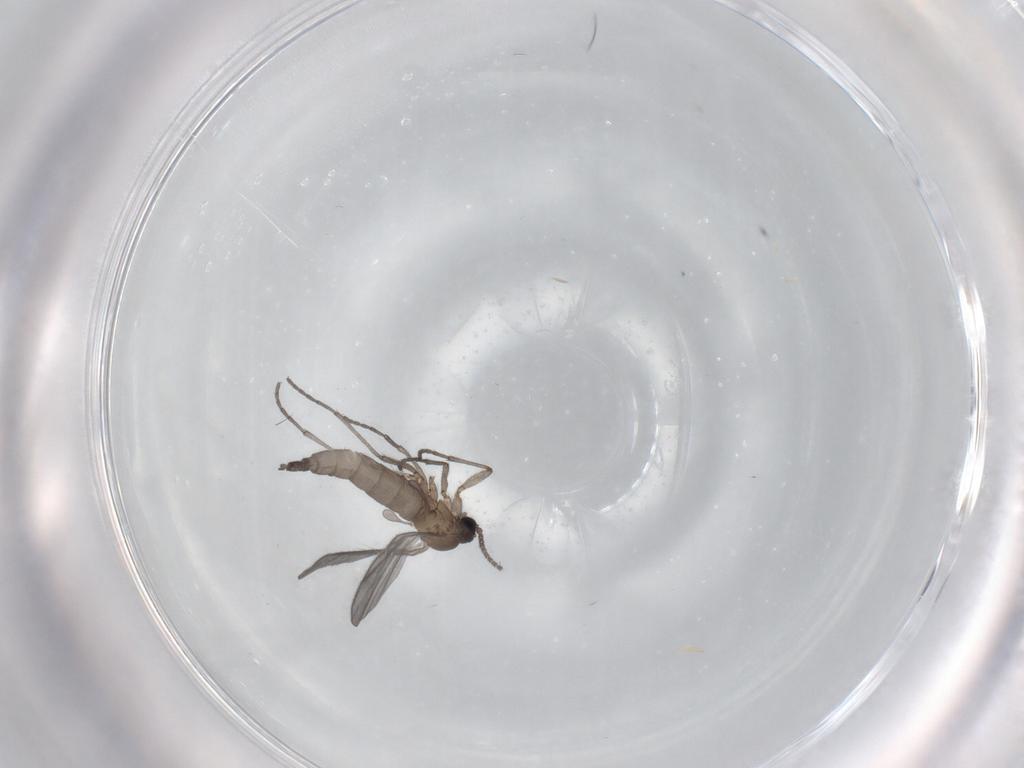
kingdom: Animalia
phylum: Arthropoda
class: Insecta
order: Diptera
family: Sciaridae
